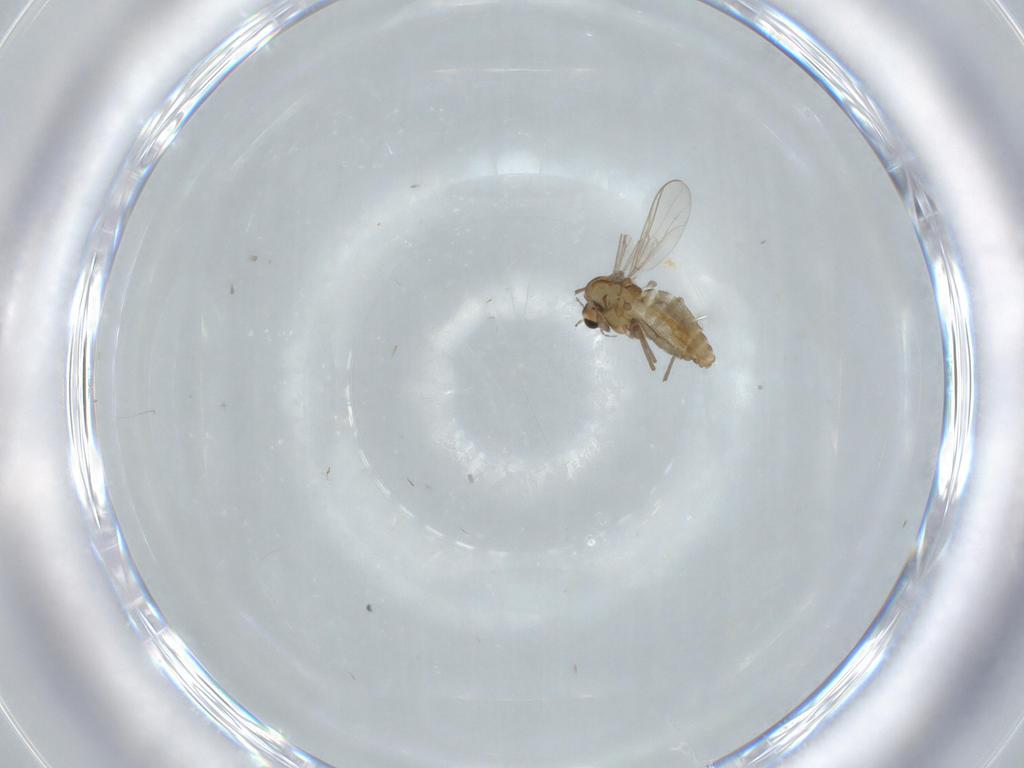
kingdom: Animalia
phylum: Arthropoda
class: Insecta
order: Diptera
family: Chironomidae
